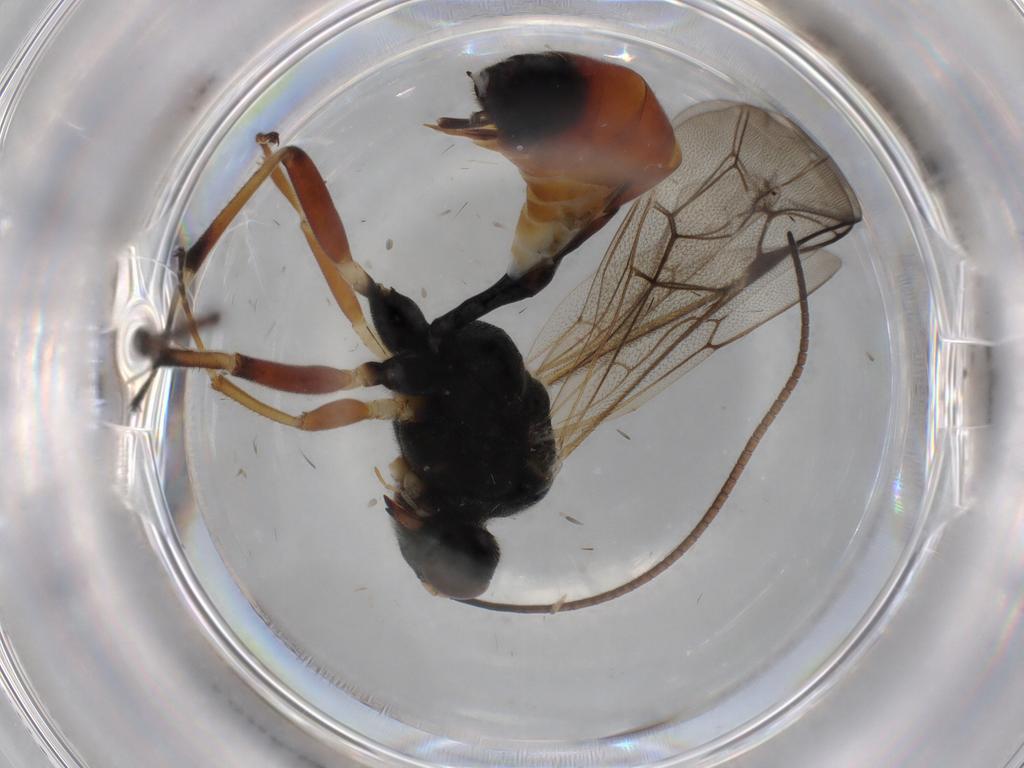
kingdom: Animalia
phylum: Arthropoda
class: Insecta
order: Hymenoptera
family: Ichneumonidae
